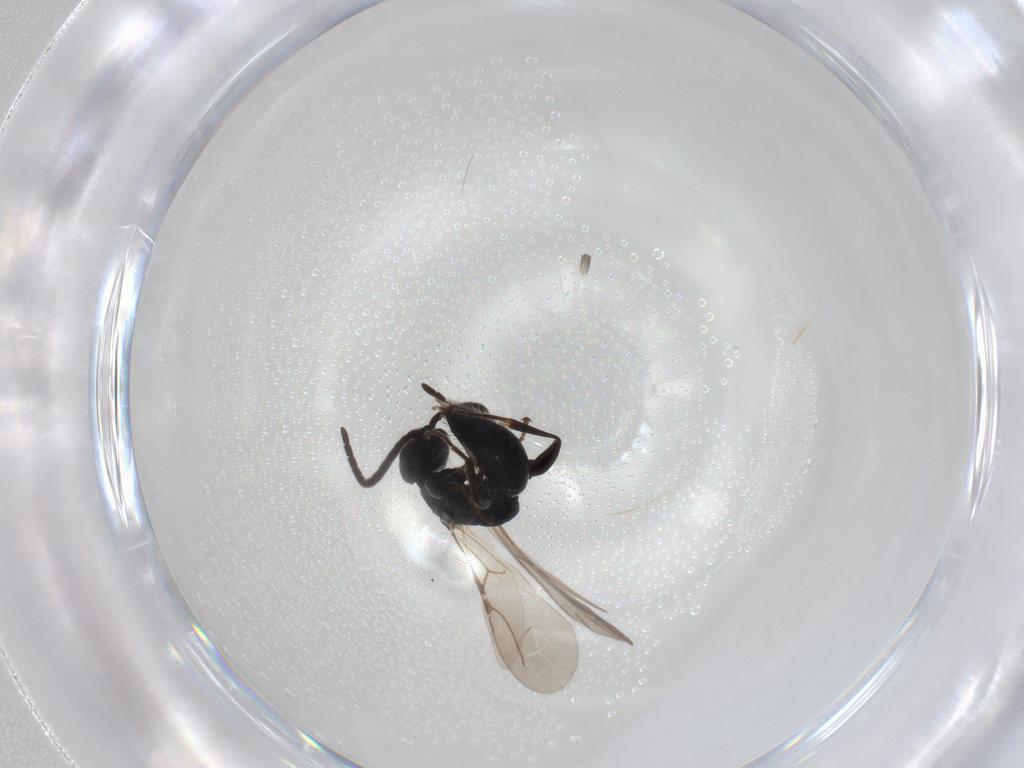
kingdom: Animalia
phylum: Arthropoda
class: Insecta
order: Hymenoptera
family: Bethylidae
